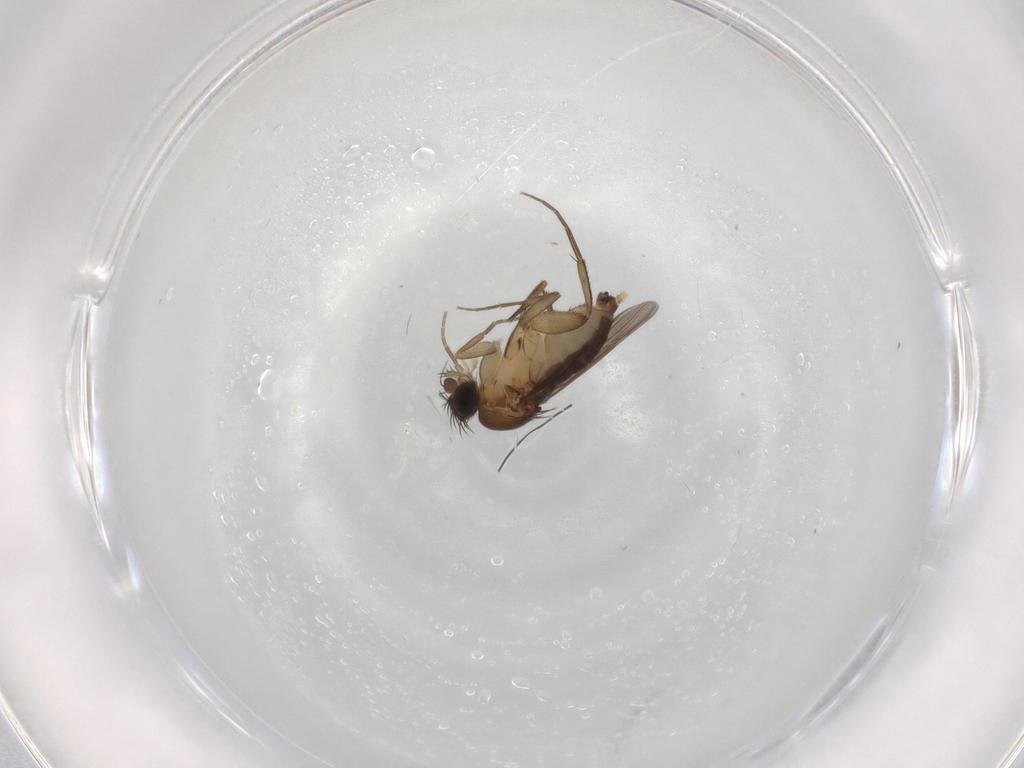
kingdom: Animalia
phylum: Arthropoda
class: Insecta
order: Diptera
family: Phoridae
